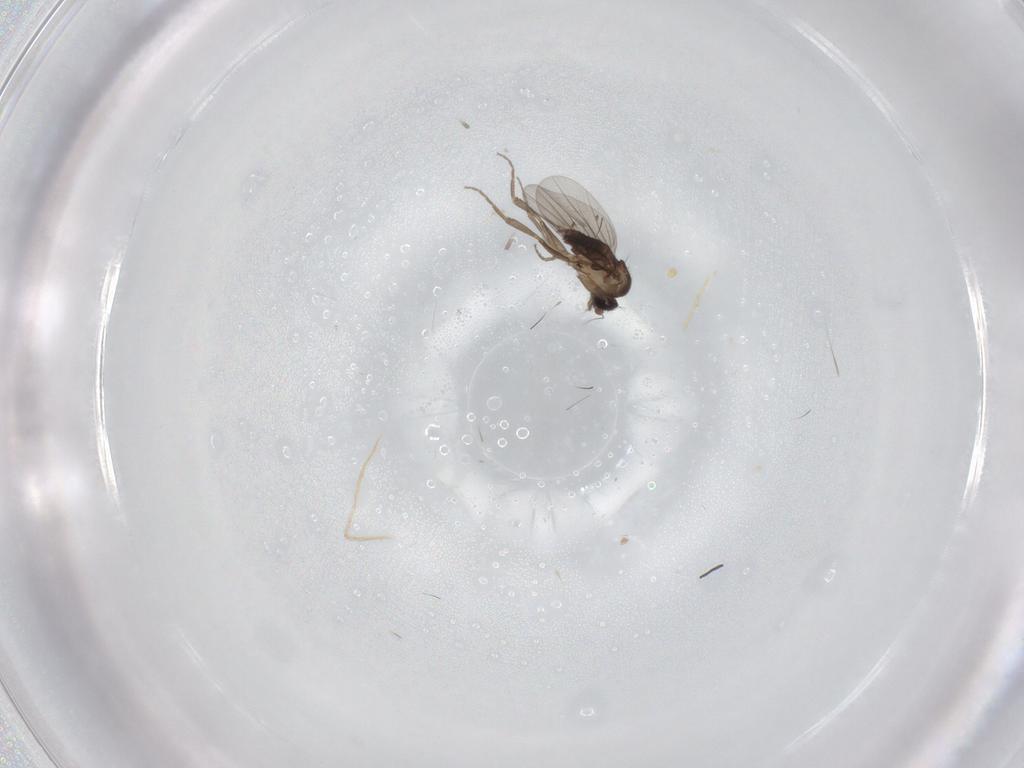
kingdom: Animalia
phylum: Arthropoda
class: Insecta
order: Diptera
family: Phoridae
